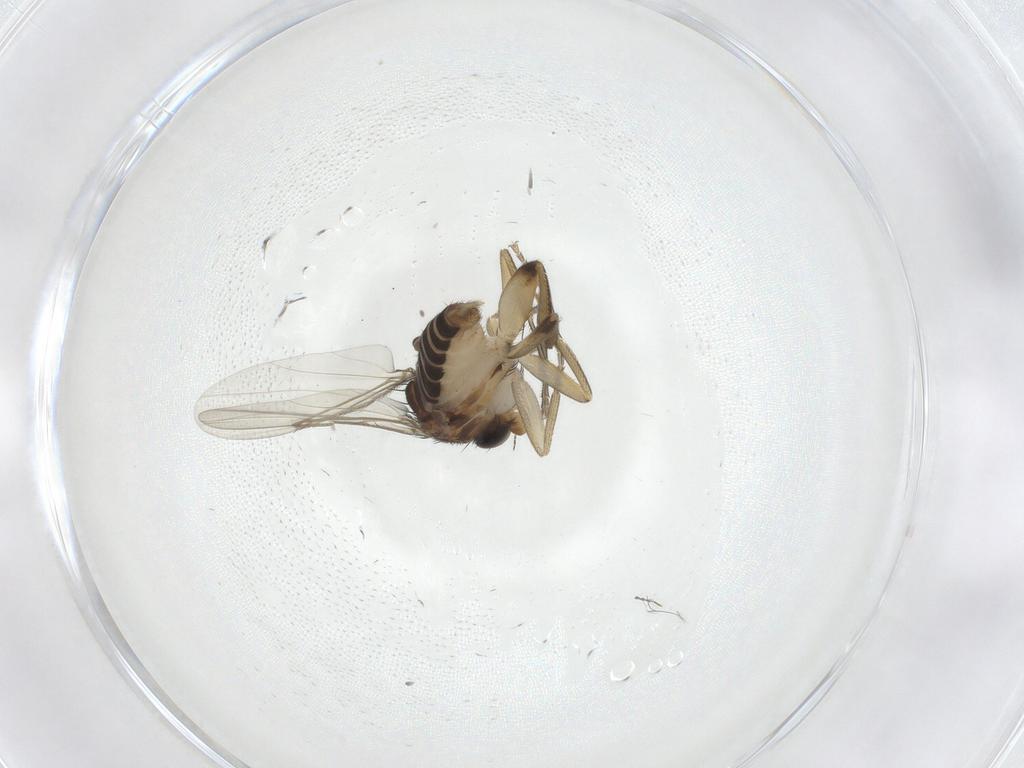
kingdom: Animalia
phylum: Arthropoda
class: Insecta
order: Diptera
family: Phoridae
